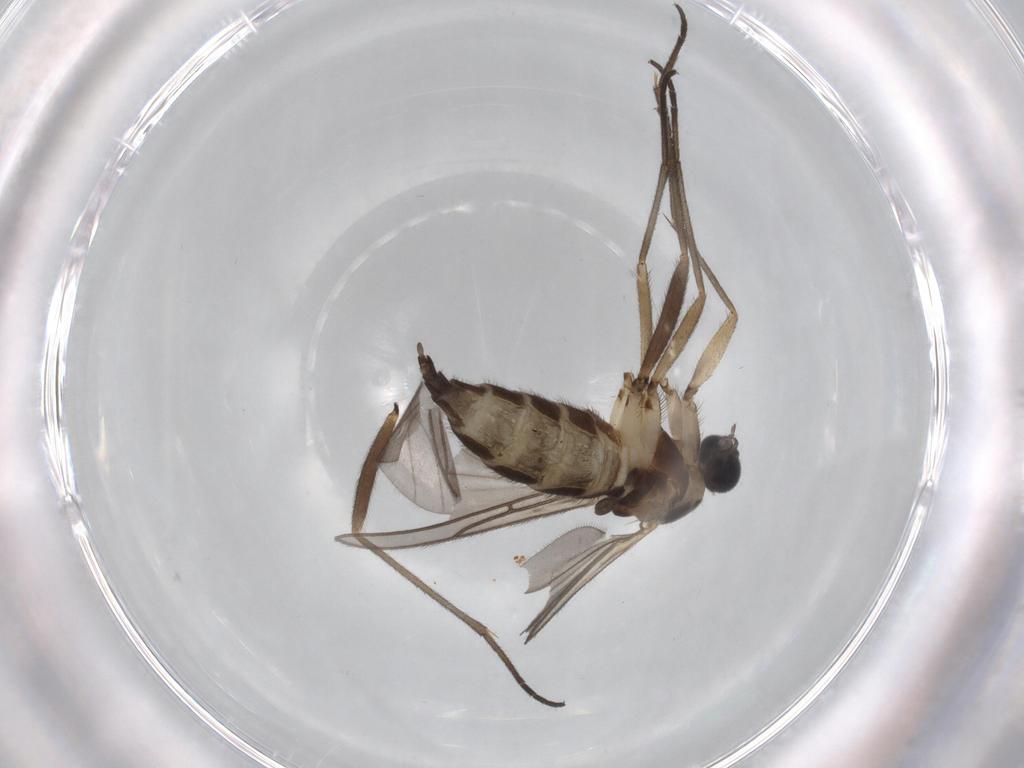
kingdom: Animalia
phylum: Arthropoda
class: Insecta
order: Diptera
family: Sciaridae
